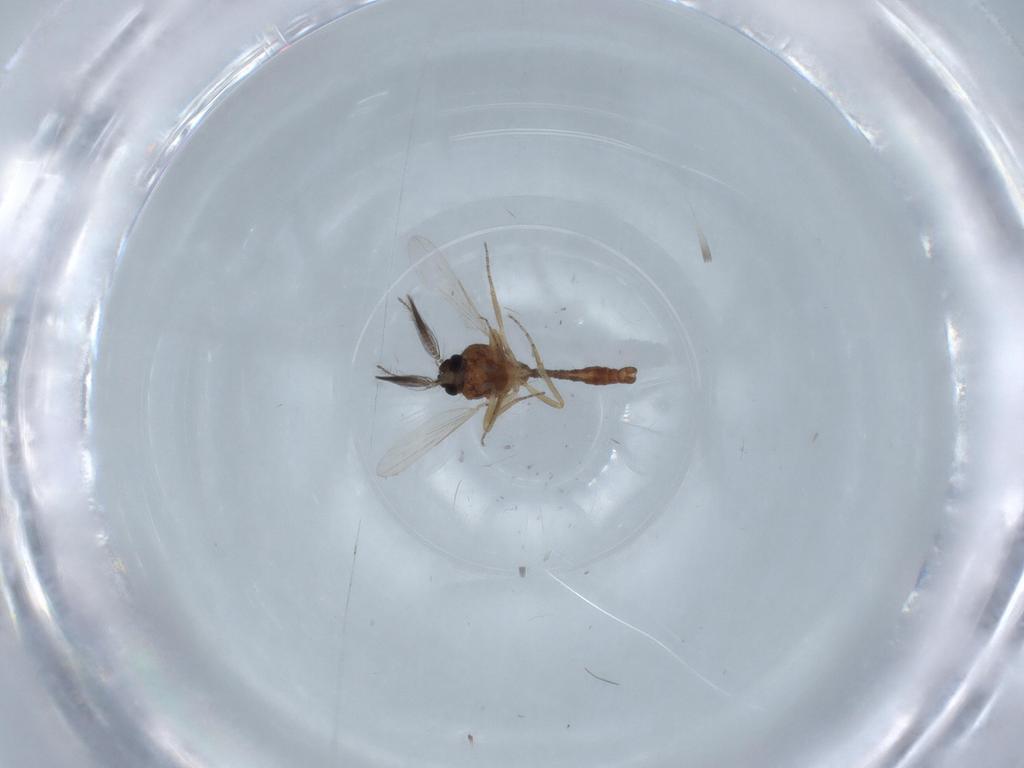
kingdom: Animalia
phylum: Arthropoda
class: Insecta
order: Diptera
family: Ceratopogonidae
